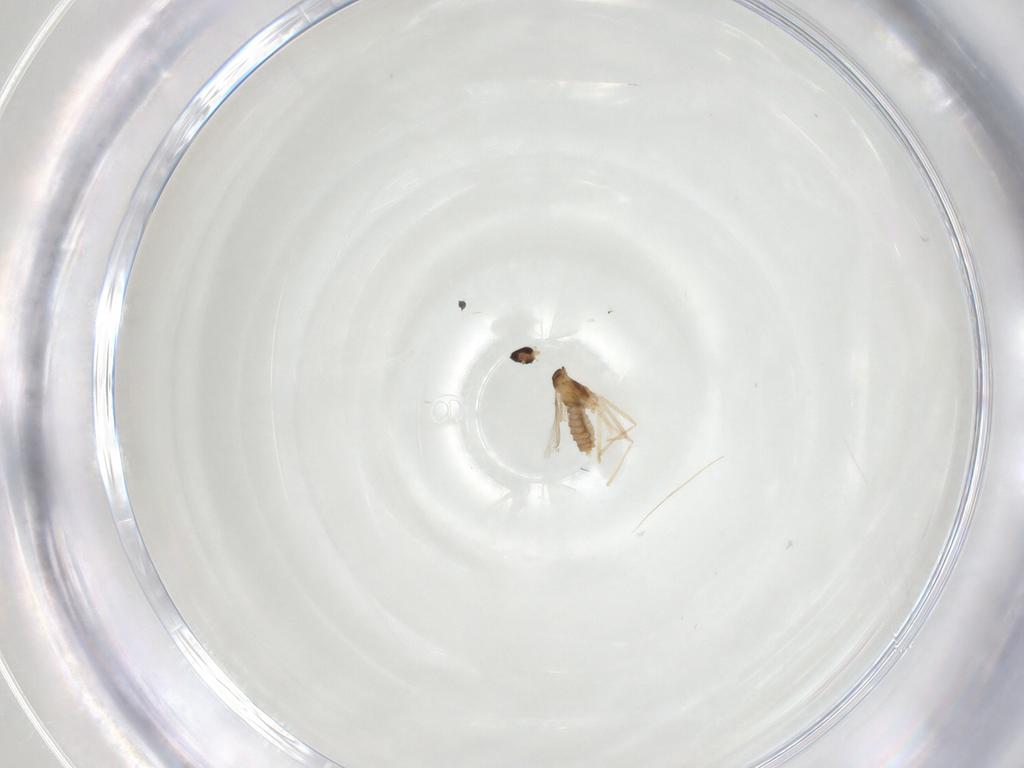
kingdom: Animalia
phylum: Arthropoda
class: Insecta
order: Diptera
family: Cecidomyiidae
